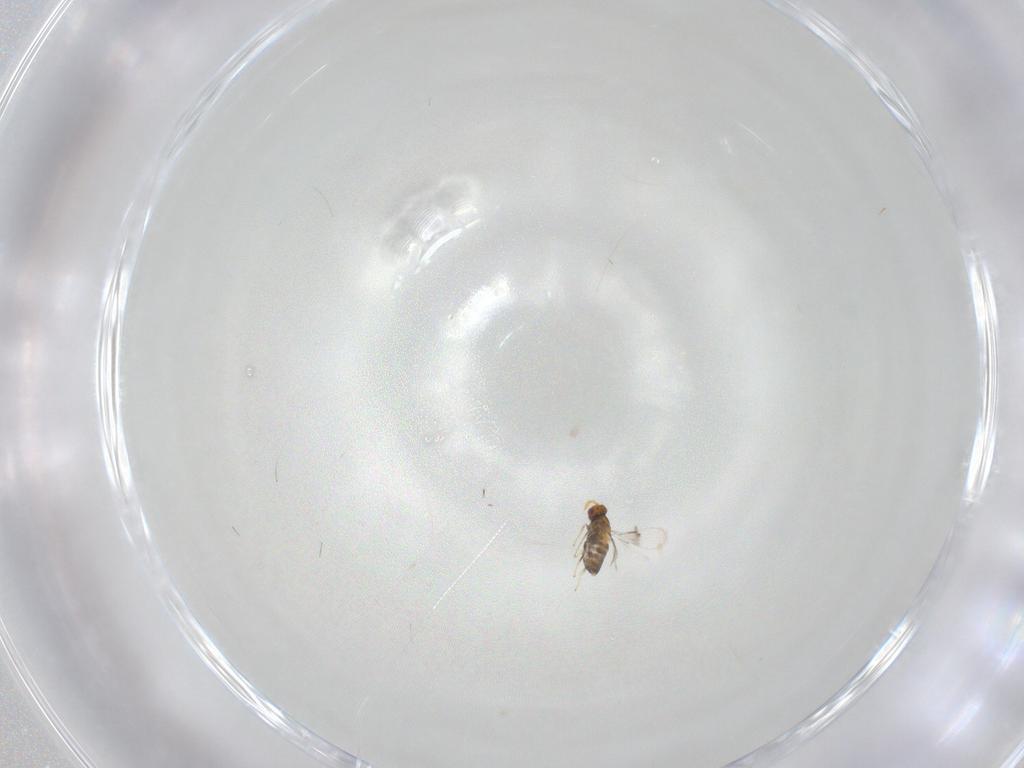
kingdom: Animalia
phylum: Arthropoda
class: Insecta
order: Hymenoptera
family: Trichogrammatidae
